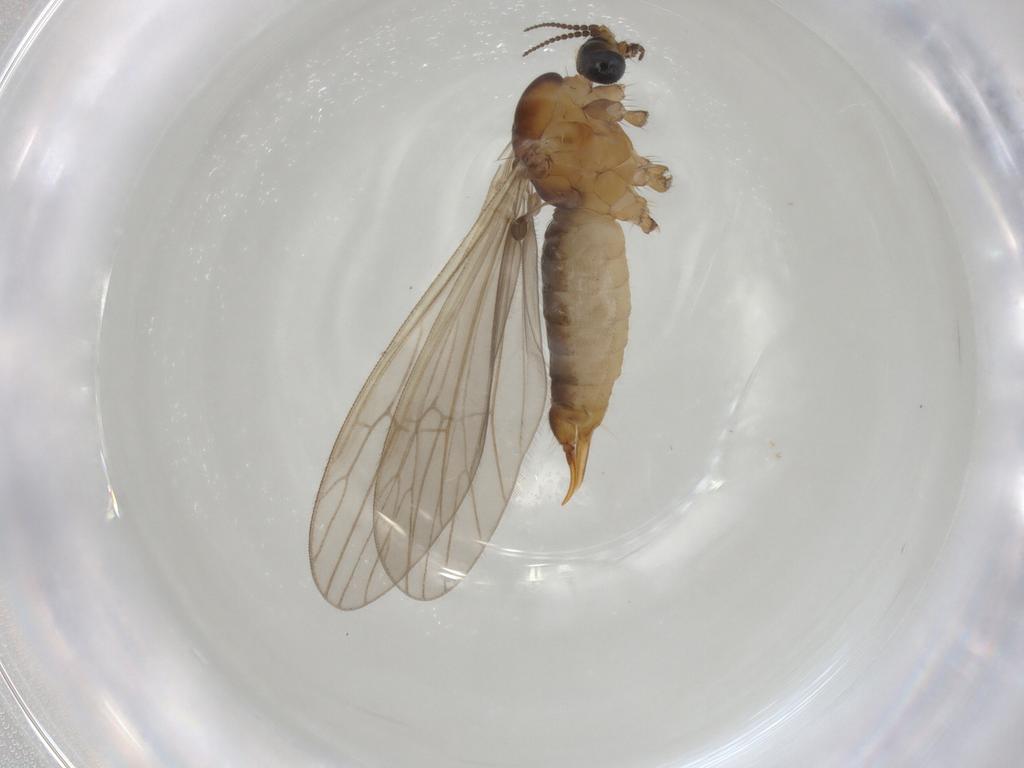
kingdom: Animalia
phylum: Arthropoda
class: Insecta
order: Diptera
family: Limoniidae
